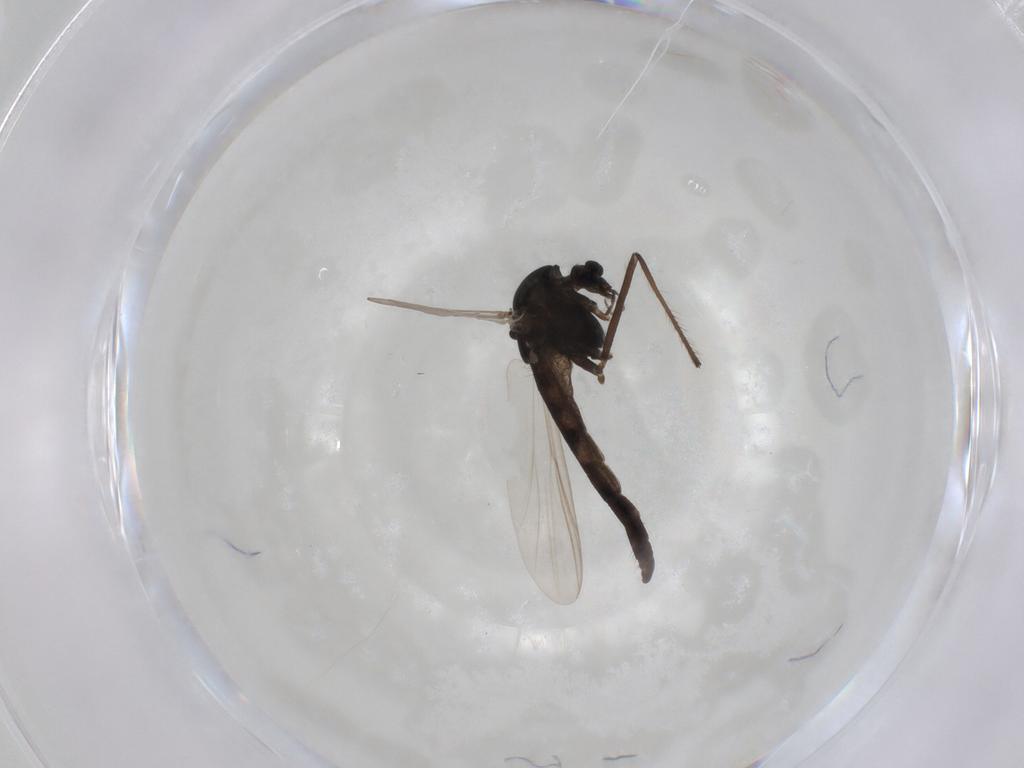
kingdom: Animalia
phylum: Arthropoda
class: Insecta
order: Diptera
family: Chironomidae
